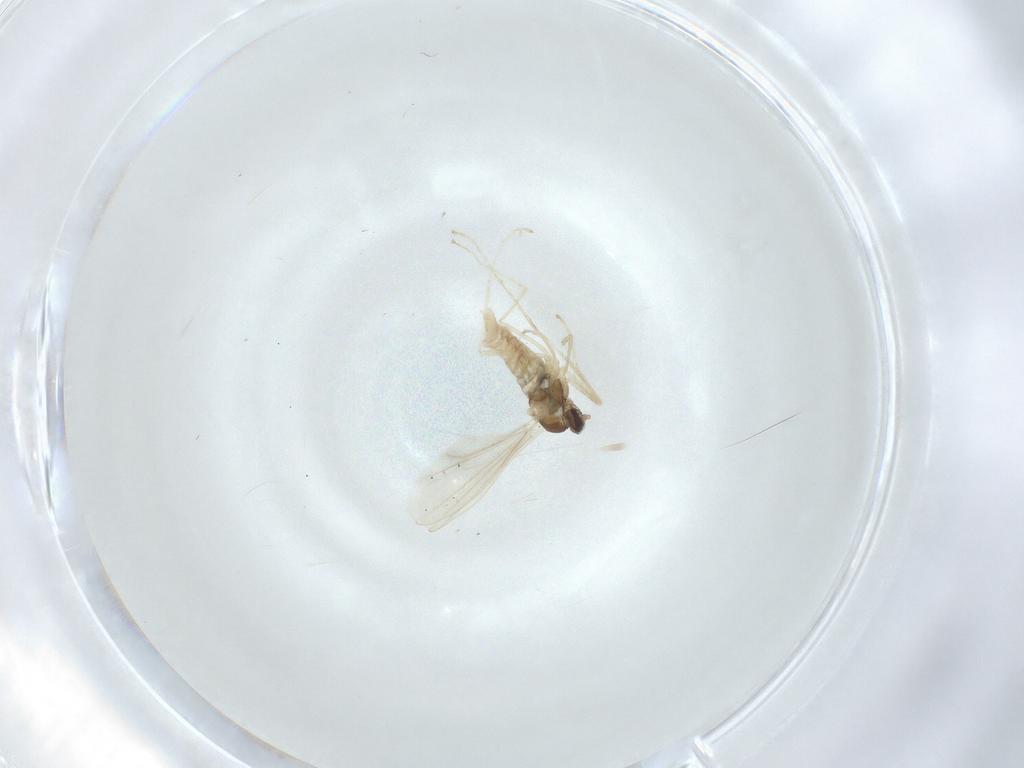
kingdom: Animalia
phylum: Arthropoda
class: Insecta
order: Diptera
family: Cecidomyiidae
